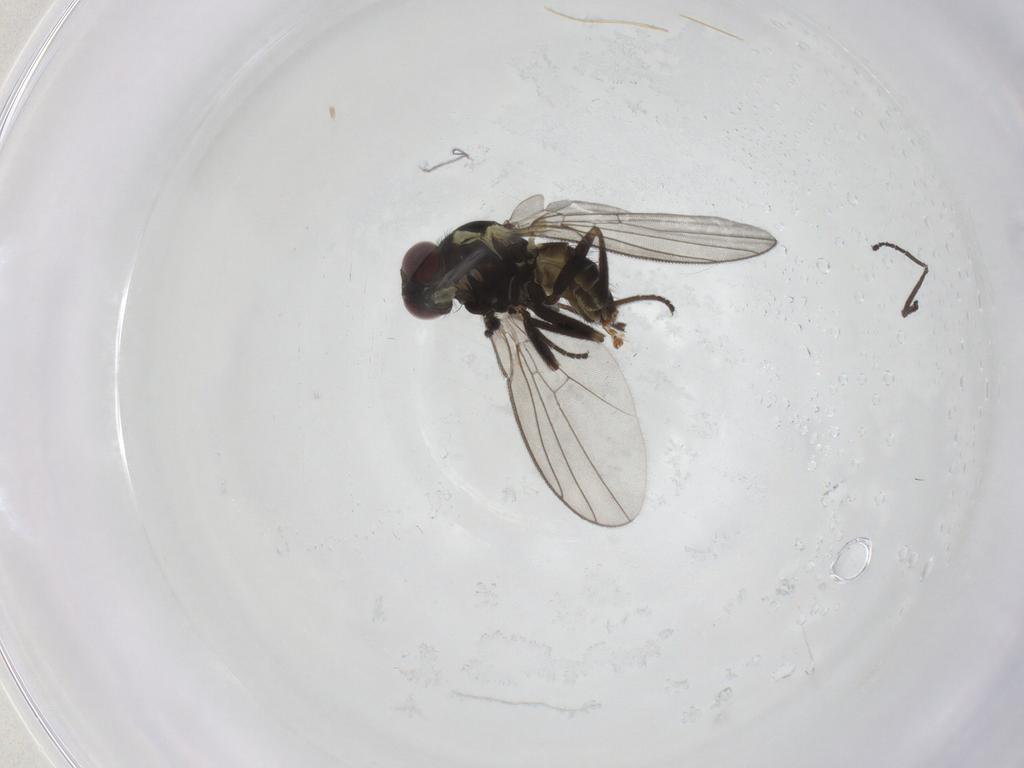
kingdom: Animalia
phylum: Arthropoda
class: Insecta
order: Diptera
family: Agromyzidae
